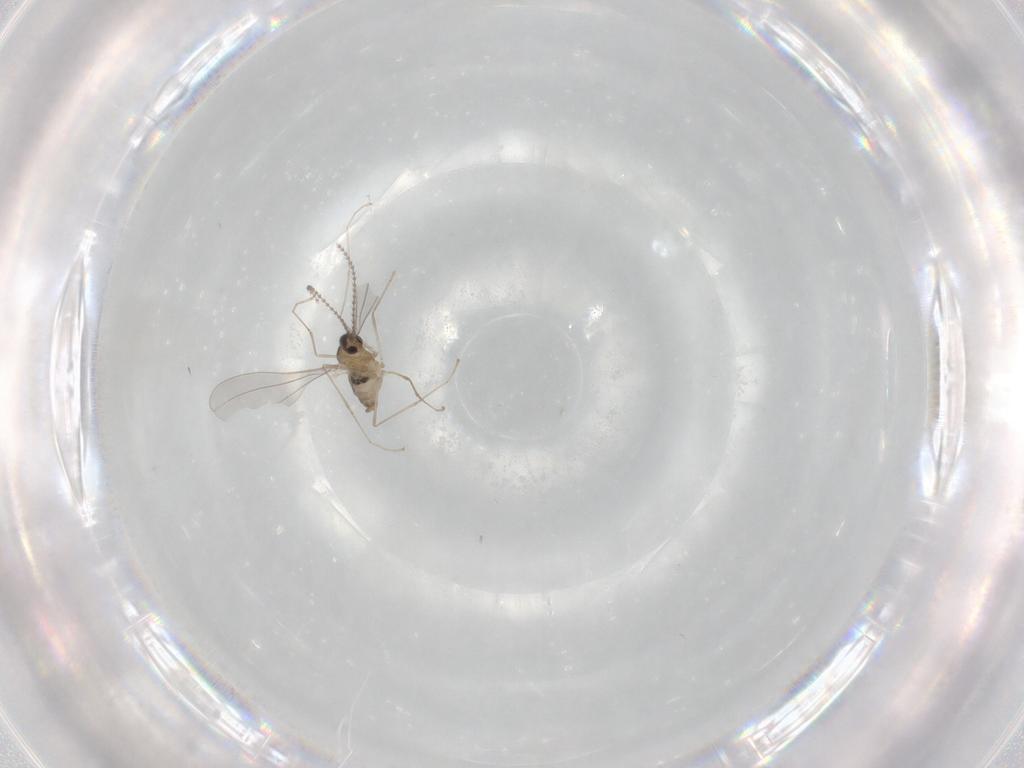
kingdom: Animalia
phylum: Arthropoda
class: Insecta
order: Diptera
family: Cecidomyiidae
